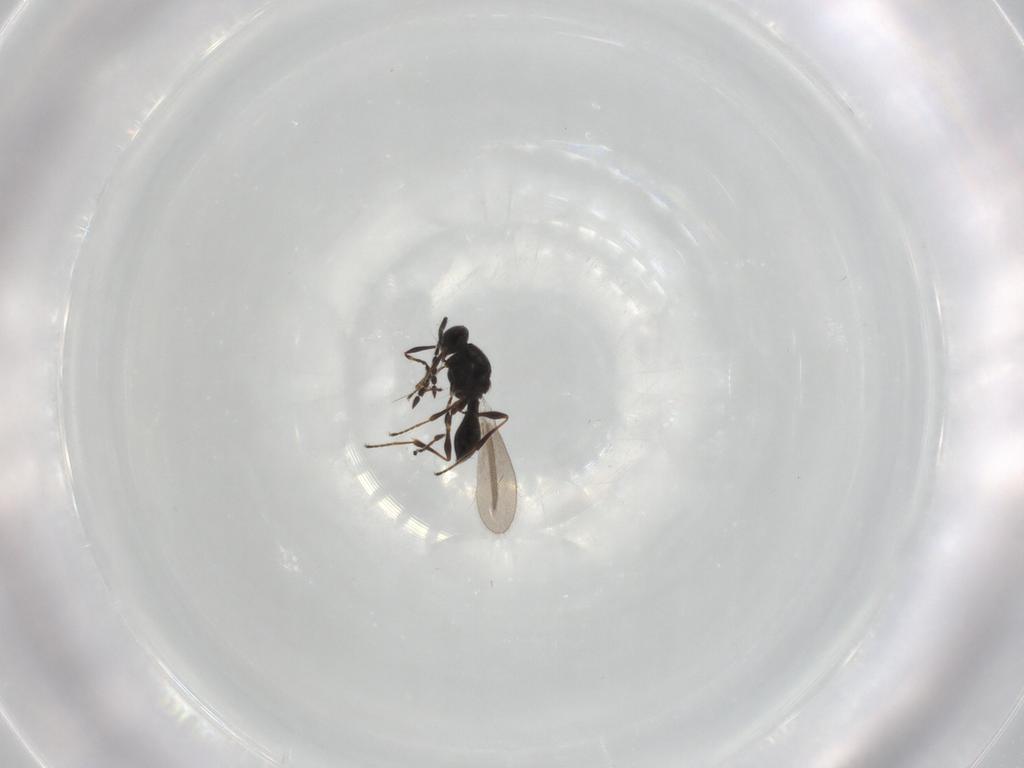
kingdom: Animalia
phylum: Arthropoda
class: Insecta
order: Hymenoptera
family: Platygastridae
